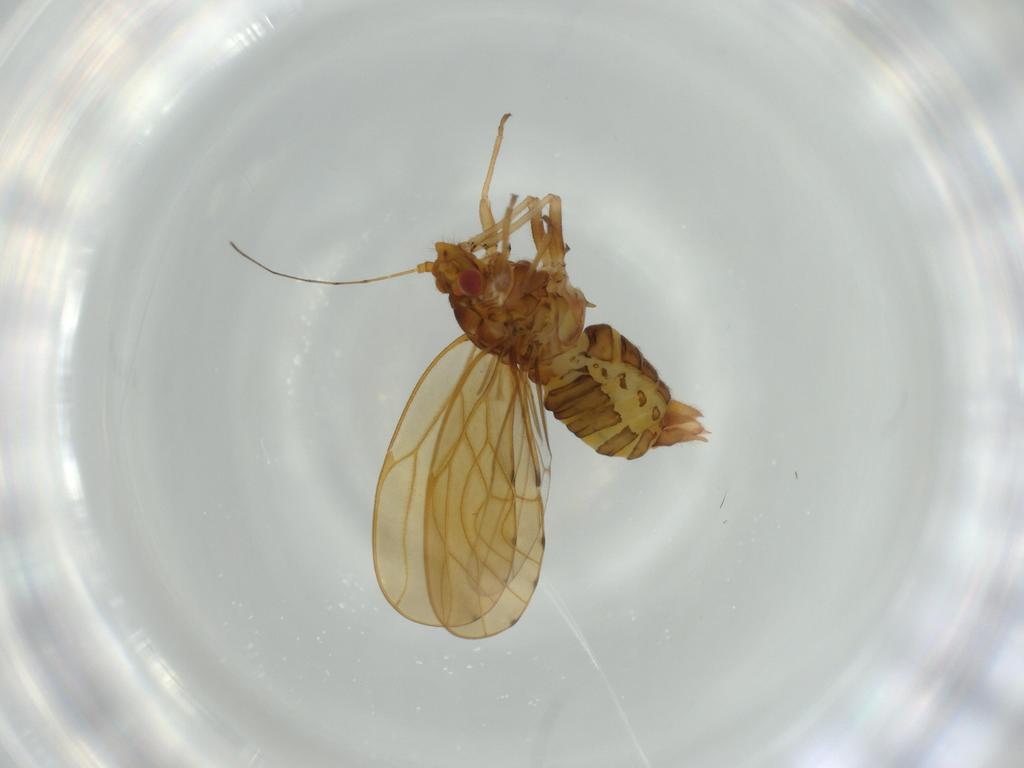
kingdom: Animalia
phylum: Arthropoda
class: Insecta
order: Hemiptera
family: Psylloidea_incertae_sedis
